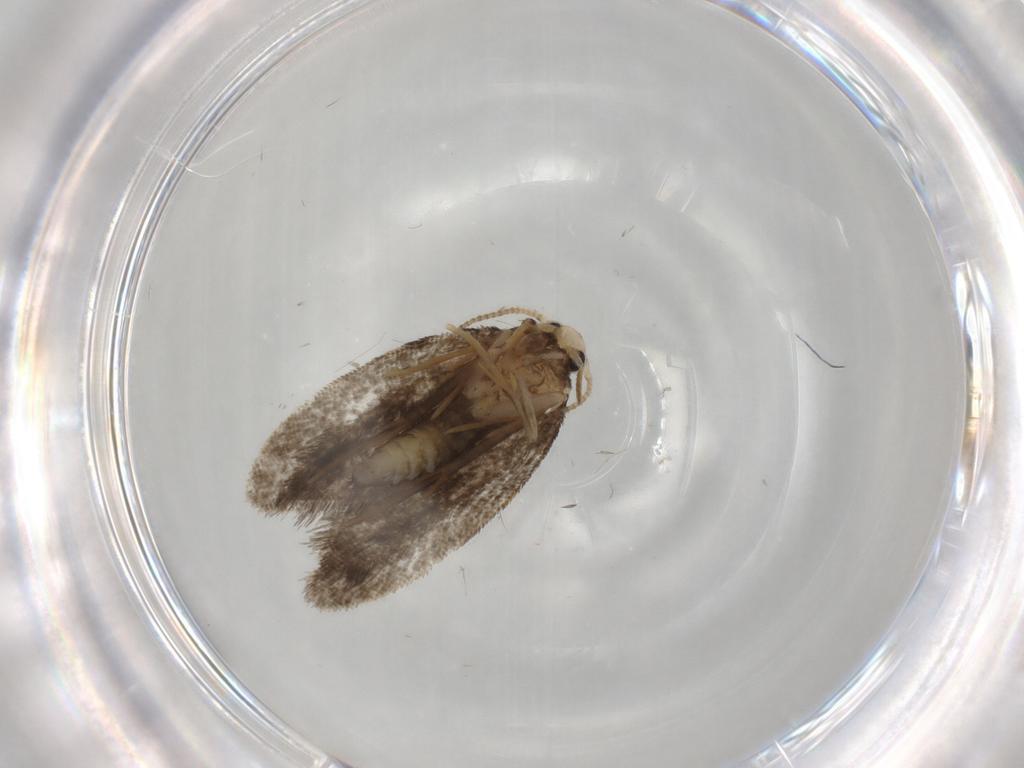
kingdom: Animalia
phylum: Arthropoda
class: Insecta
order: Lepidoptera
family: Psychidae
